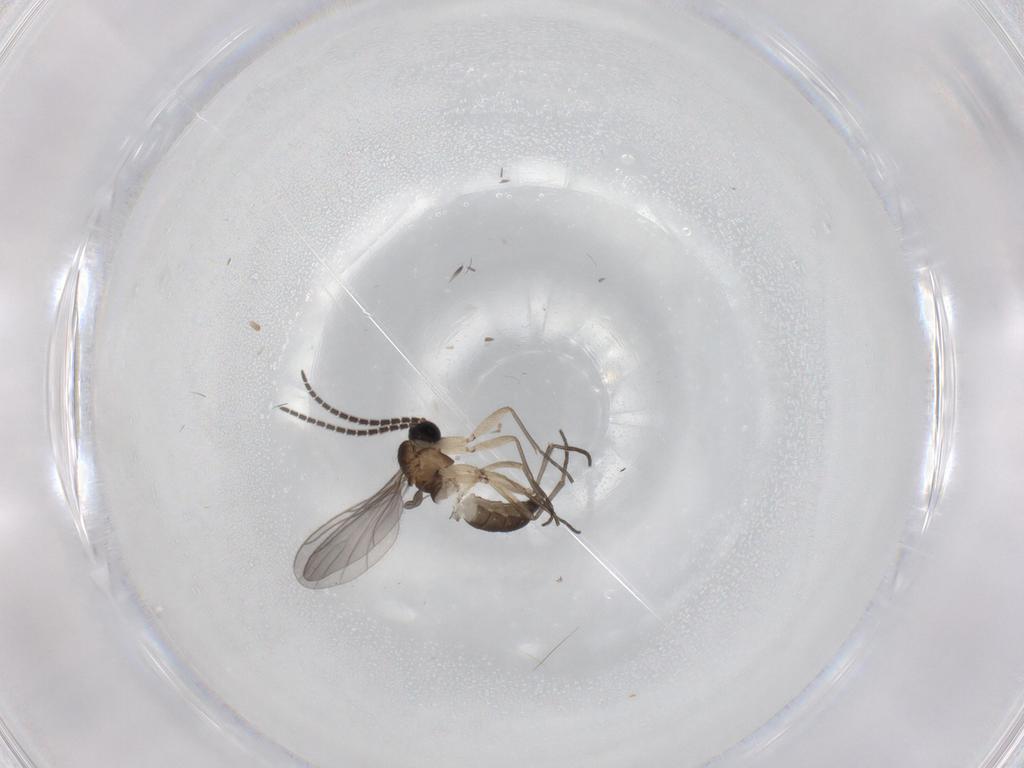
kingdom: Animalia
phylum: Arthropoda
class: Insecta
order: Diptera
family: Sciaridae
